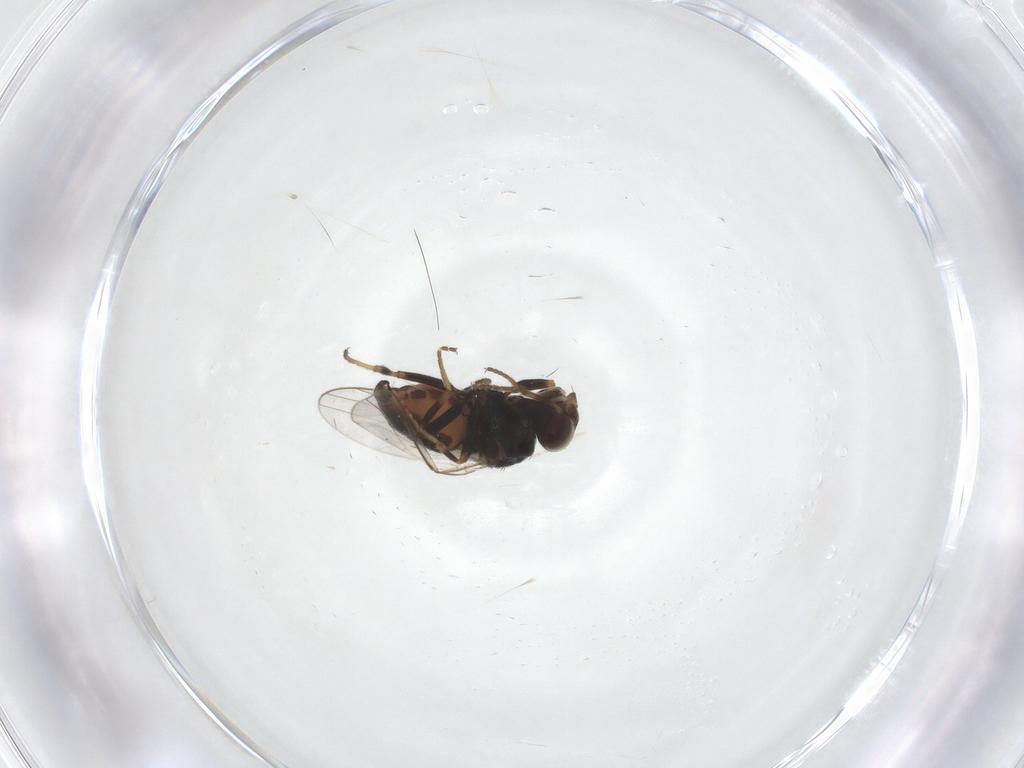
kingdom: Animalia
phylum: Arthropoda
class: Insecta
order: Diptera
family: Chloropidae
